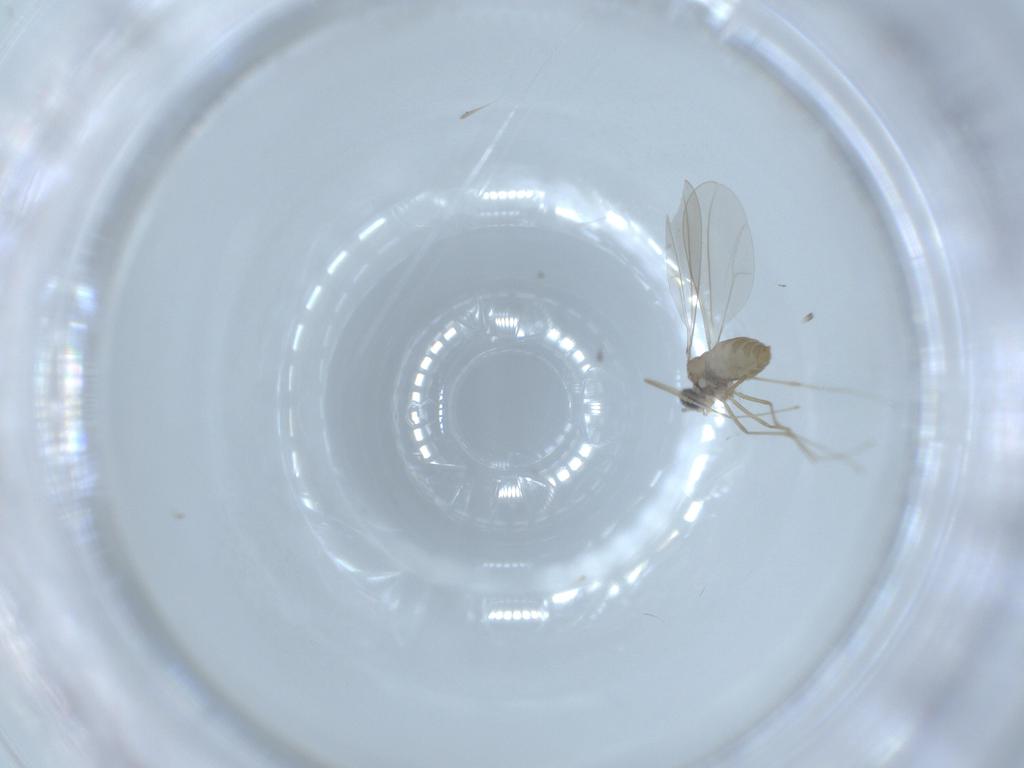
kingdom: Animalia
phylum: Arthropoda
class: Insecta
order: Diptera
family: Cecidomyiidae
